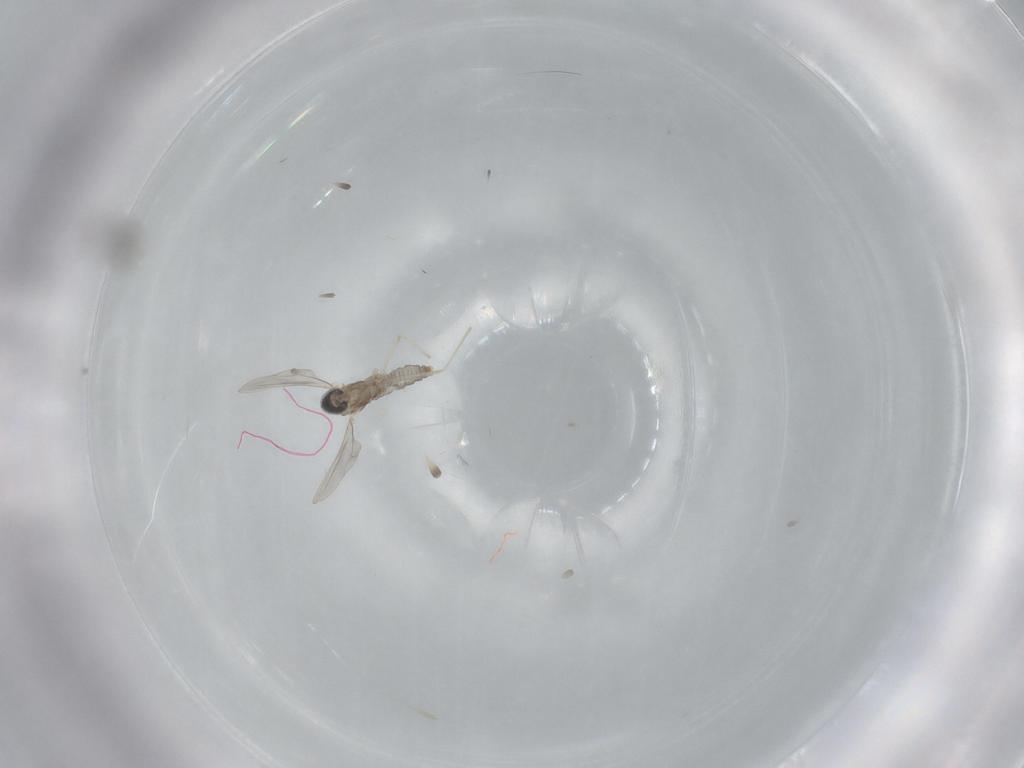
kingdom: Animalia
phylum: Arthropoda
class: Insecta
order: Diptera
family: Cecidomyiidae
